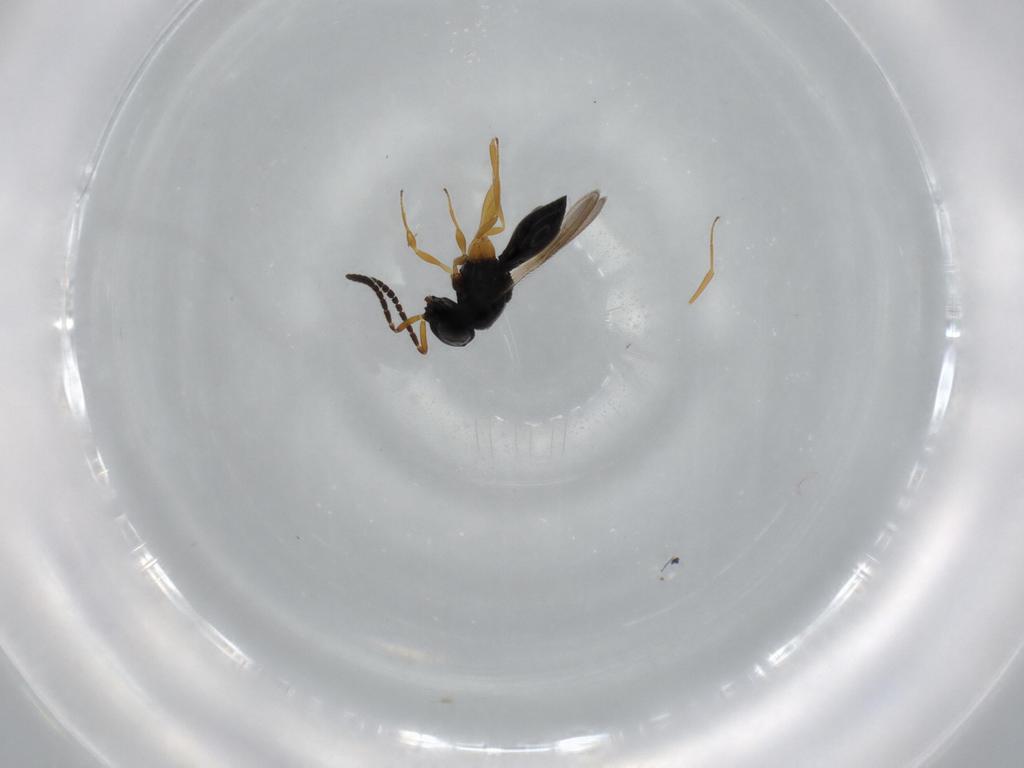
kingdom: Animalia
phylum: Arthropoda
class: Insecta
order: Hymenoptera
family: Scelionidae
